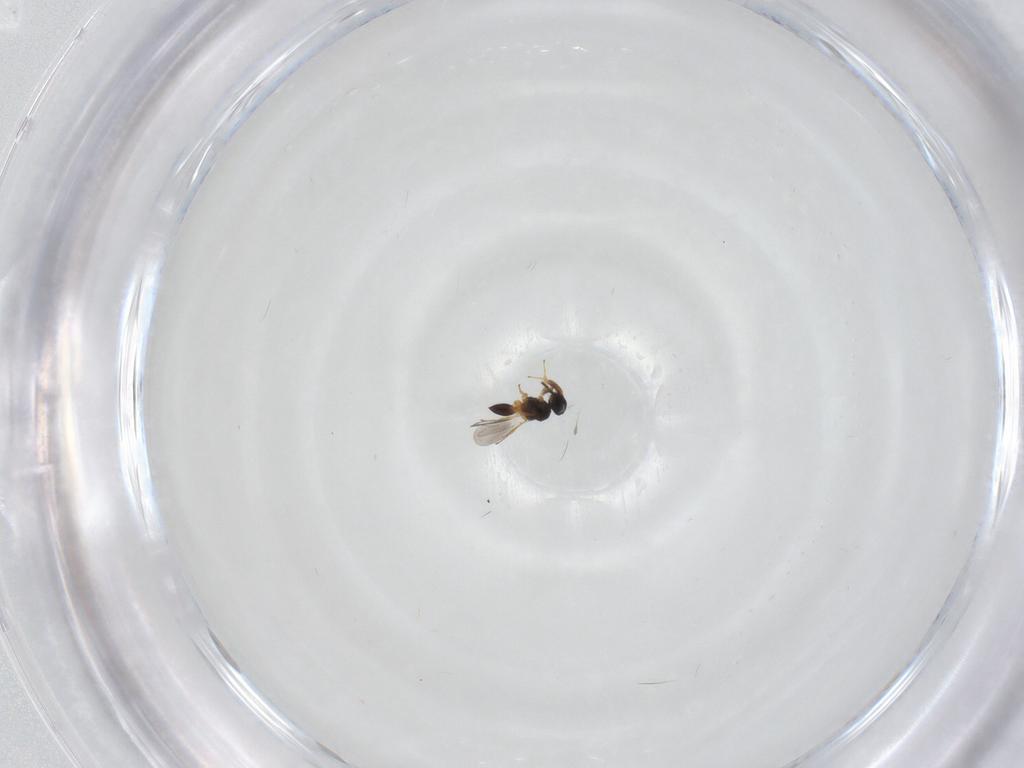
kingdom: Animalia
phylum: Arthropoda
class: Insecta
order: Hymenoptera
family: Platygastridae
